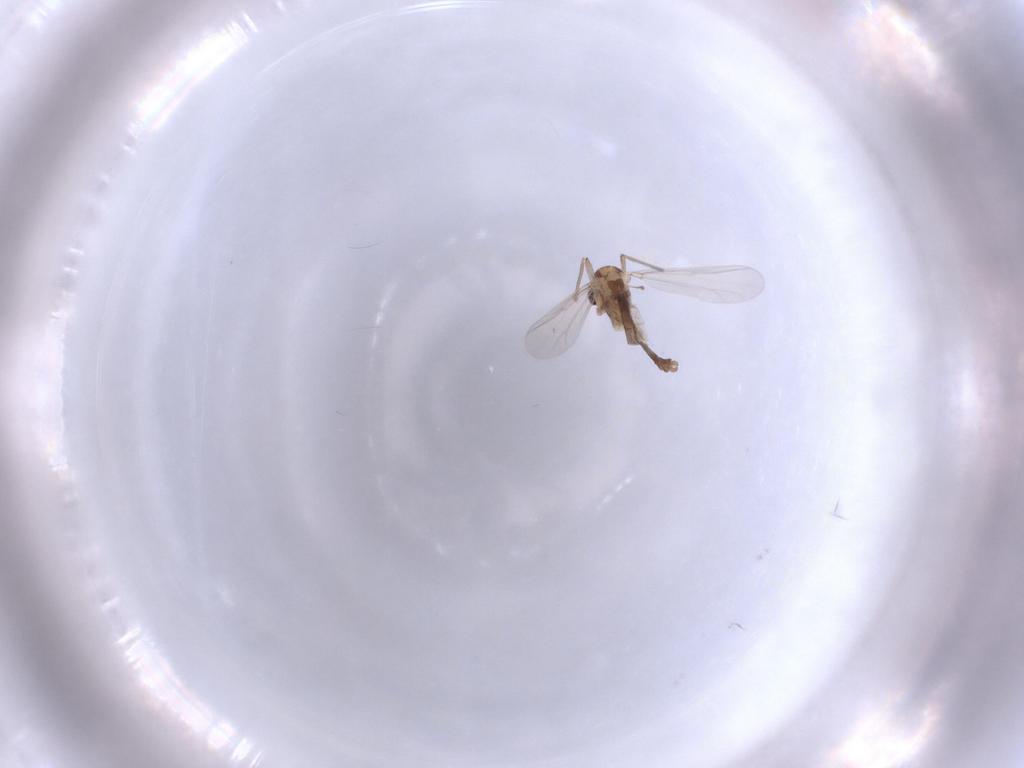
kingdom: Animalia
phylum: Arthropoda
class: Insecta
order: Diptera
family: Chironomidae
